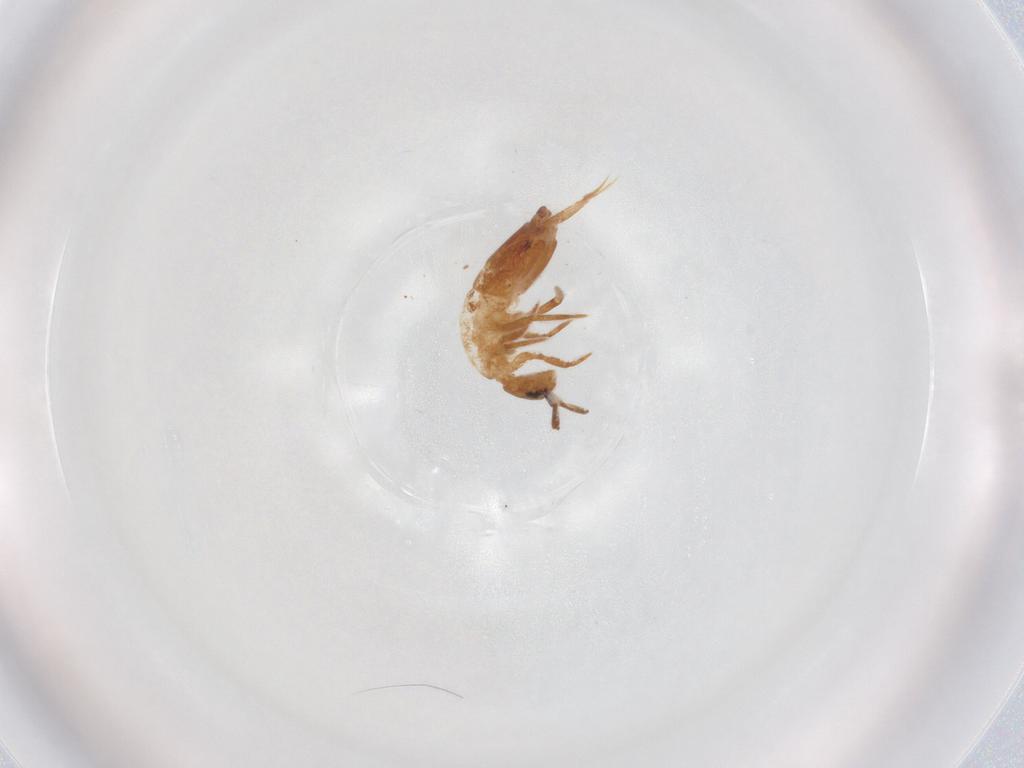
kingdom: Animalia
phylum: Arthropoda
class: Collembola
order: Entomobryomorpha
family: Entomobryidae
